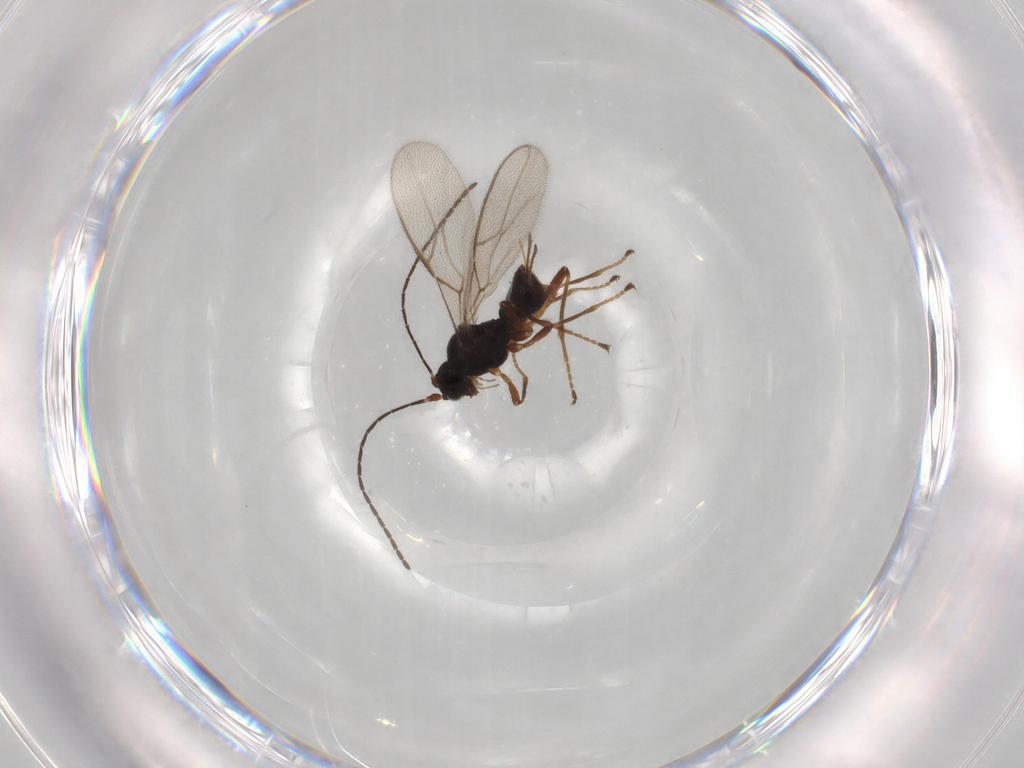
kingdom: Animalia
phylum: Arthropoda
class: Insecta
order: Hymenoptera
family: Braconidae
